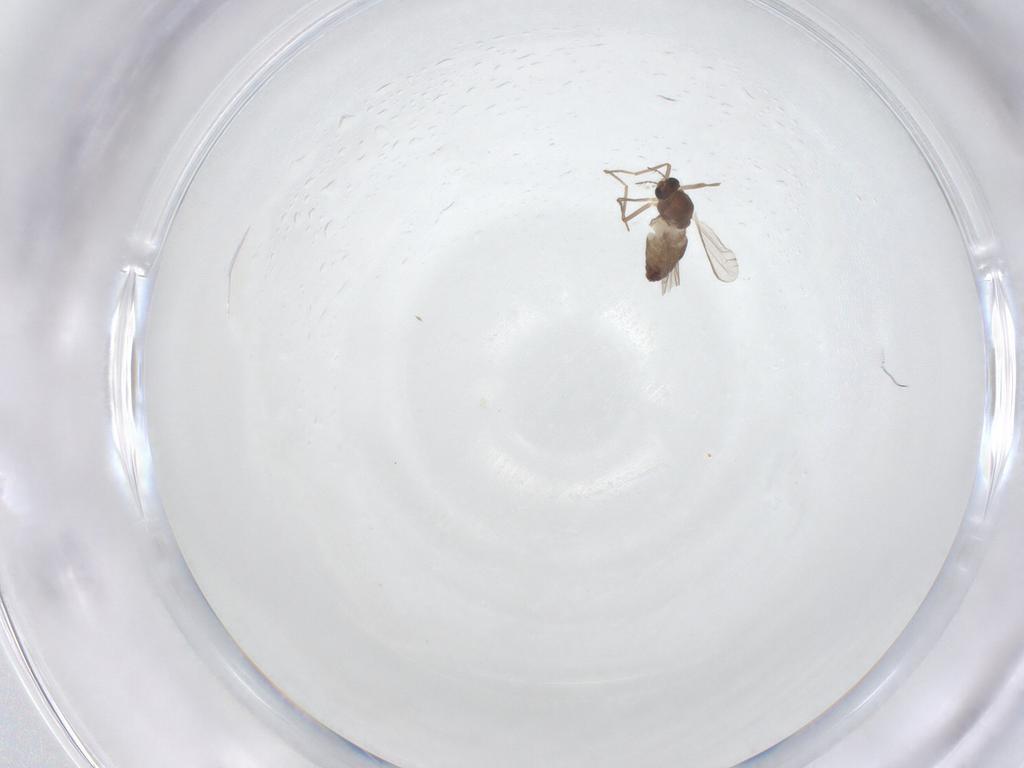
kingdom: Animalia
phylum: Arthropoda
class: Insecta
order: Diptera
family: Chironomidae
